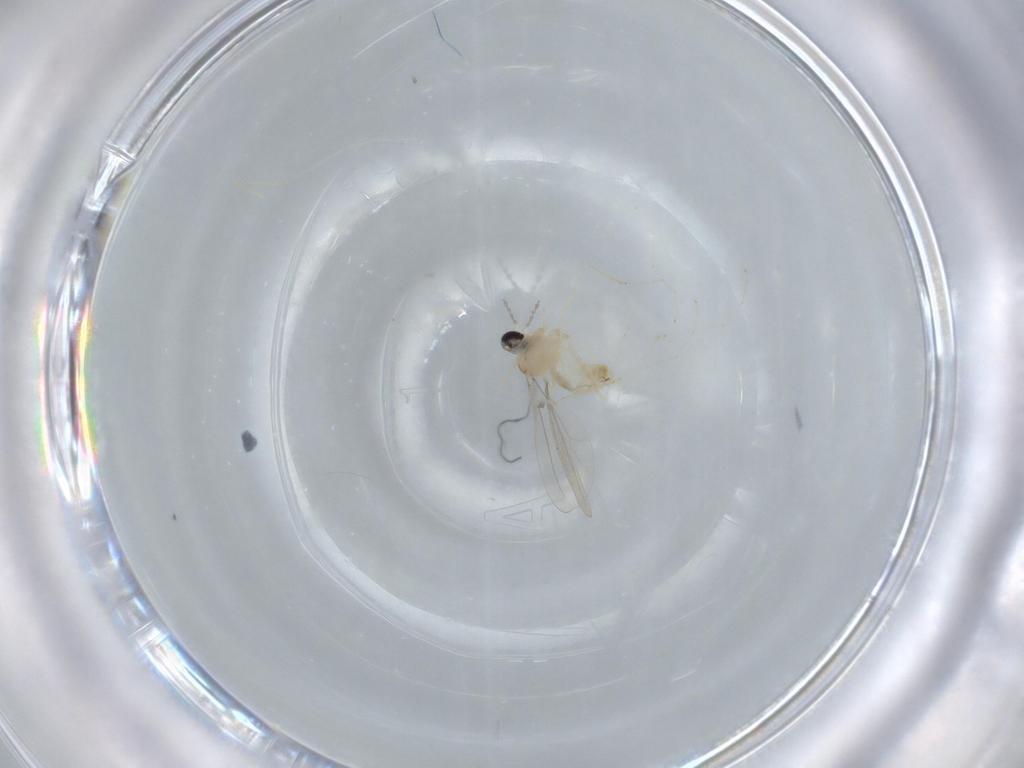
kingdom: Animalia
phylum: Arthropoda
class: Insecta
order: Diptera
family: Cecidomyiidae
